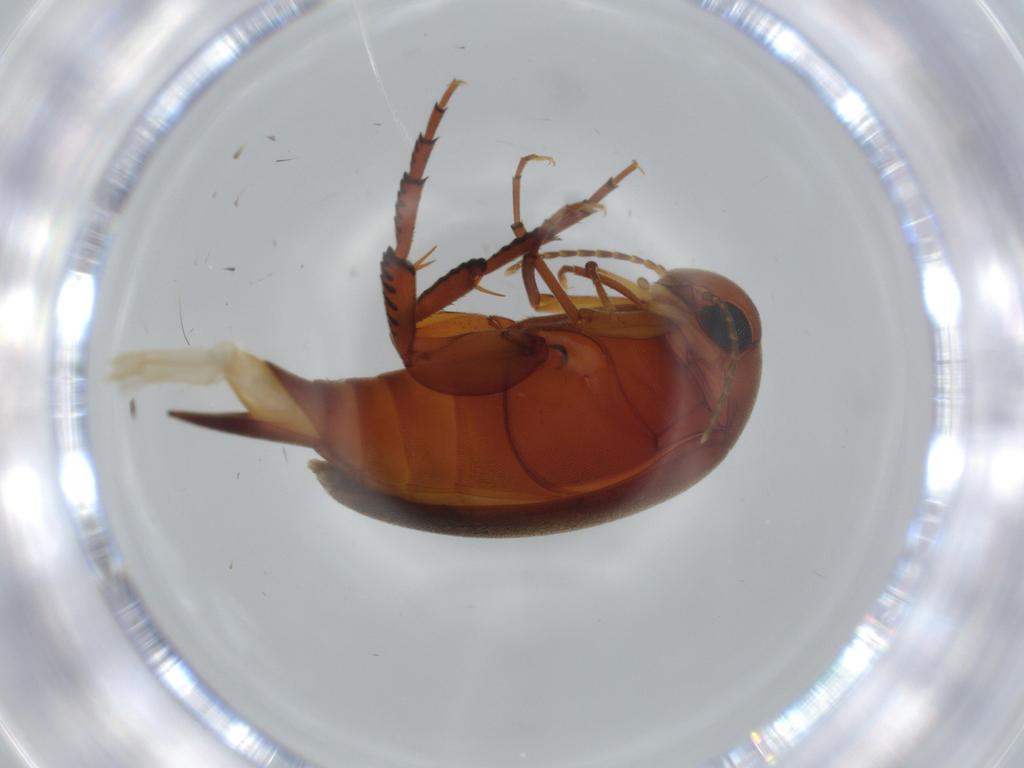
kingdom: Animalia
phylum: Arthropoda
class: Insecta
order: Coleoptera
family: Mordellidae
